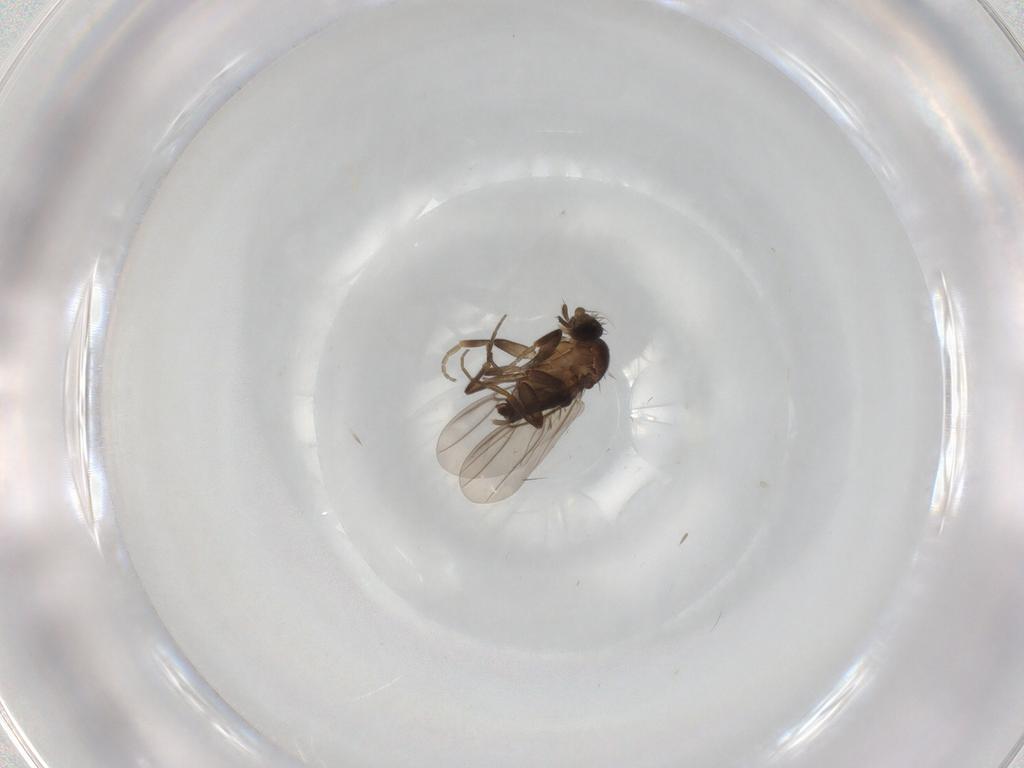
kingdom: Animalia
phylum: Arthropoda
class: Insecta
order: Diptera
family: Phoridae
